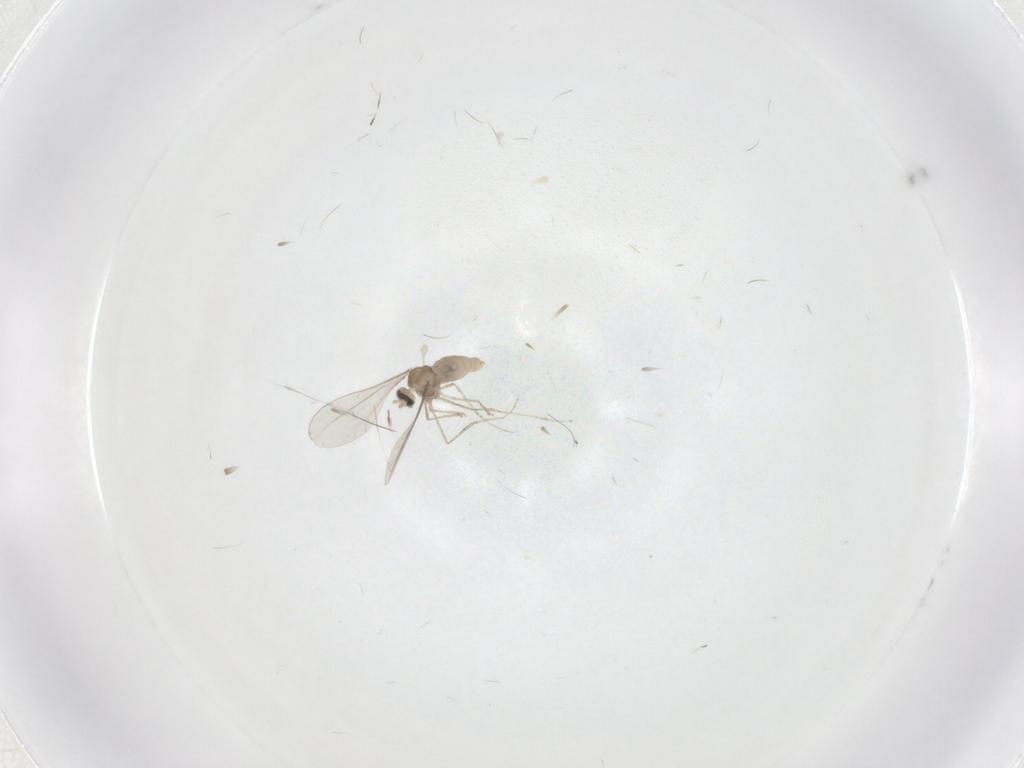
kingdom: Animalia
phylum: Arthropoda
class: Insecta
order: Diptera
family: Cecidomyiidae
